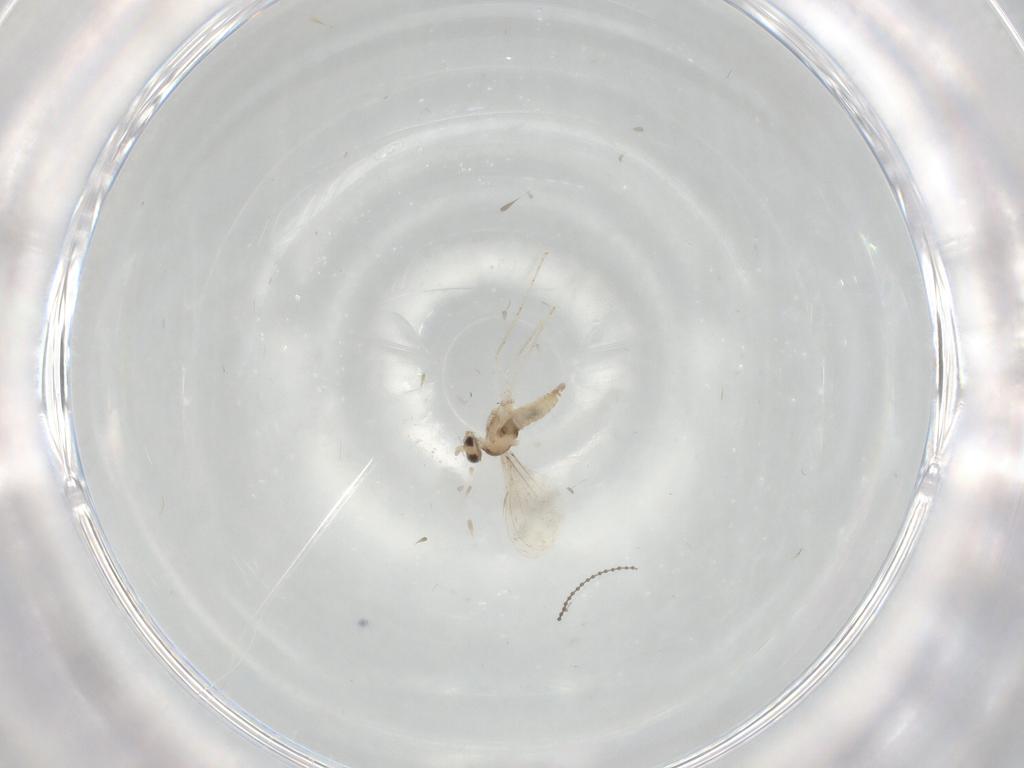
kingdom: Animalia
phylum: Arthropoda
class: Insecta
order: Diptera
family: Cecidomyiidae
